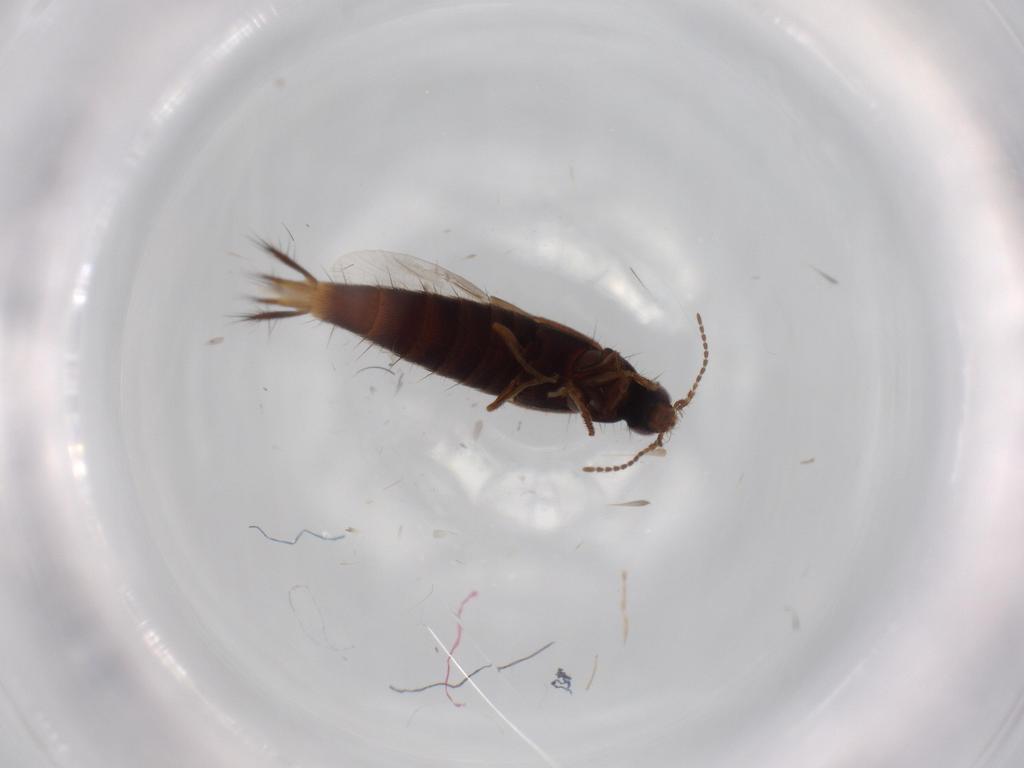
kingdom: Animalia
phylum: Arthropoda
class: Insecta
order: Coleoptera
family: Staphylinidae
